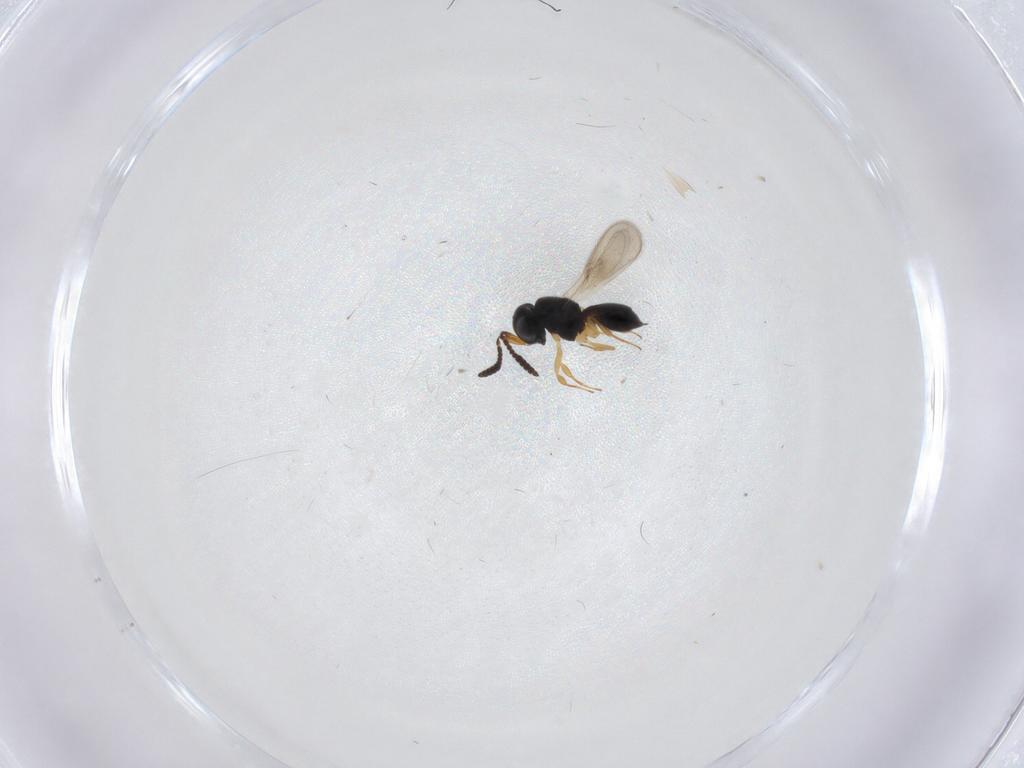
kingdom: Animalia
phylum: Arthropoda
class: Insecta
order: Hymenoptera
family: Scelionidae
